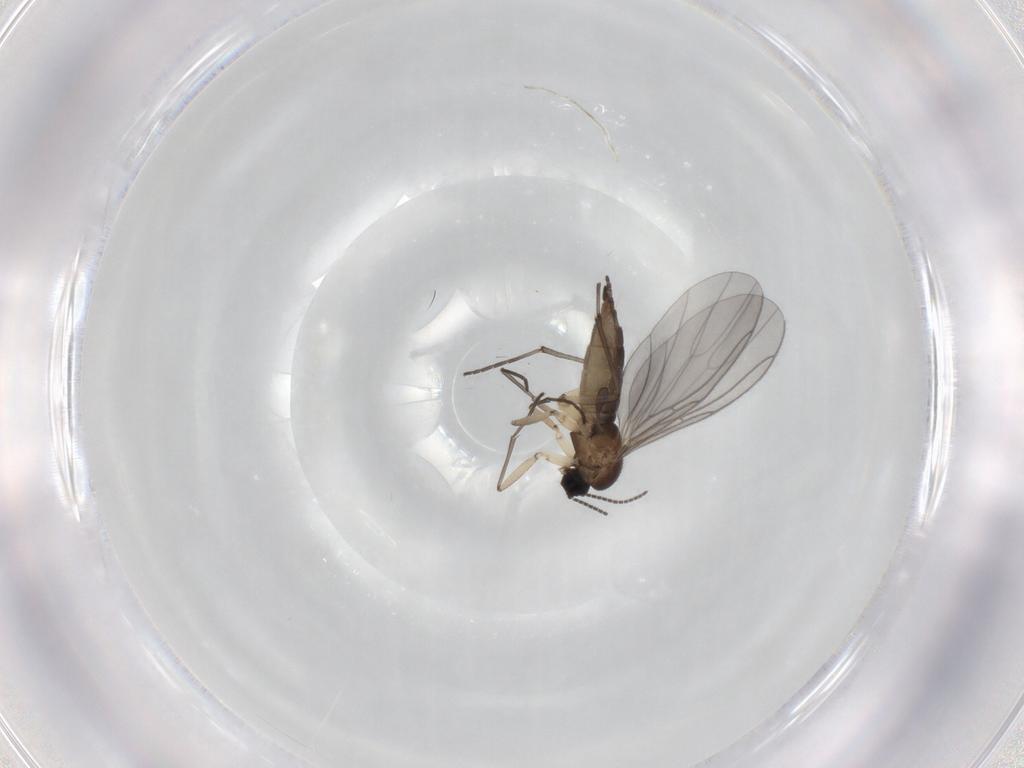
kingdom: Animalia
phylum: Arthropoda
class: Insecta
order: Diptera
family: Sciaridae
